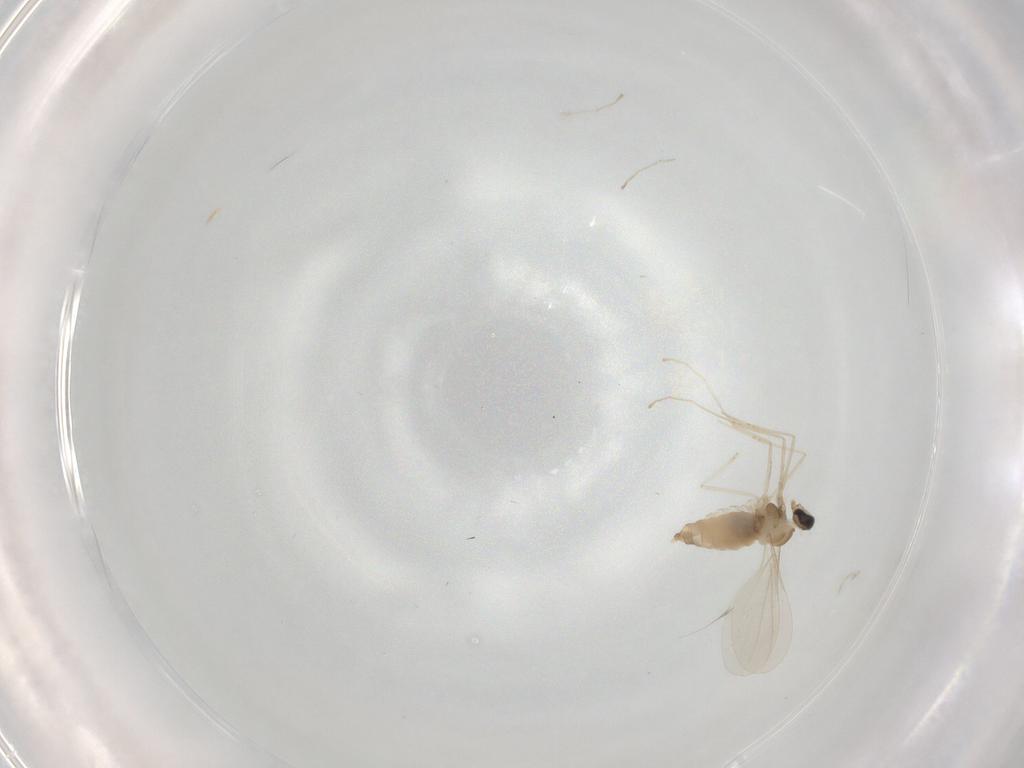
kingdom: Animalia
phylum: Arthropoda
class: Insecta
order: Diptera
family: Cecidomyiidae
